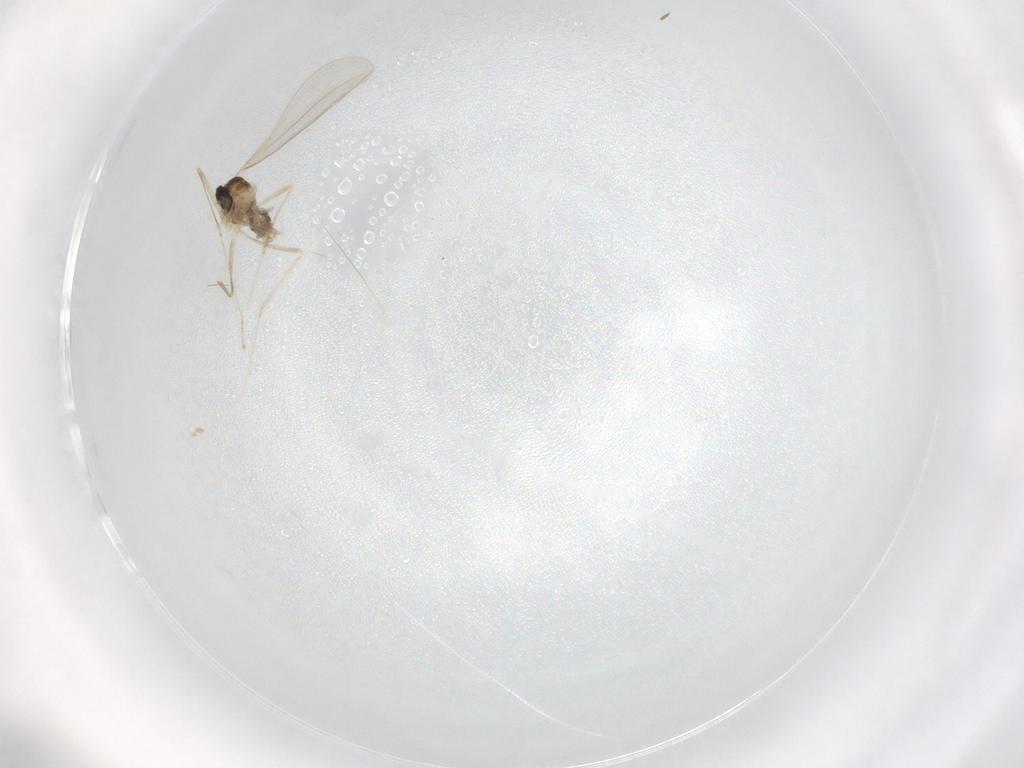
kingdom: Animalia
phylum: Arthropoda
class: Insecta
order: Diptera
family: Cecidomyiidae
